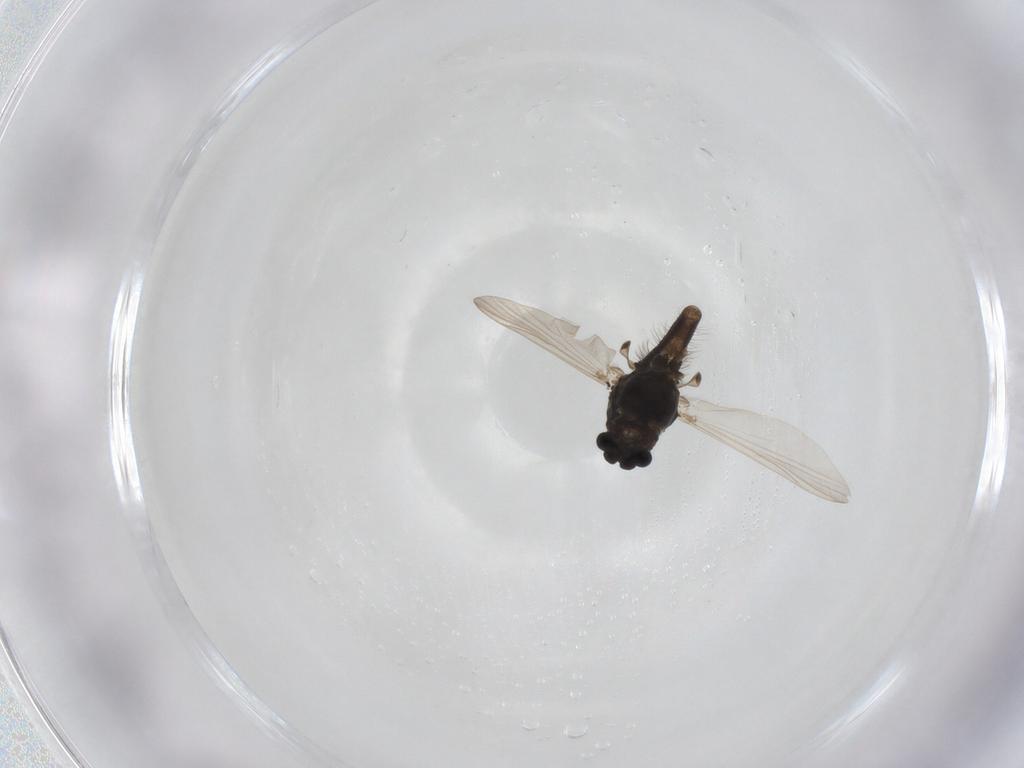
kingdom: Animalia
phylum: Arthropoda
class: Insecta
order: Diptera
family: Chironomidae
